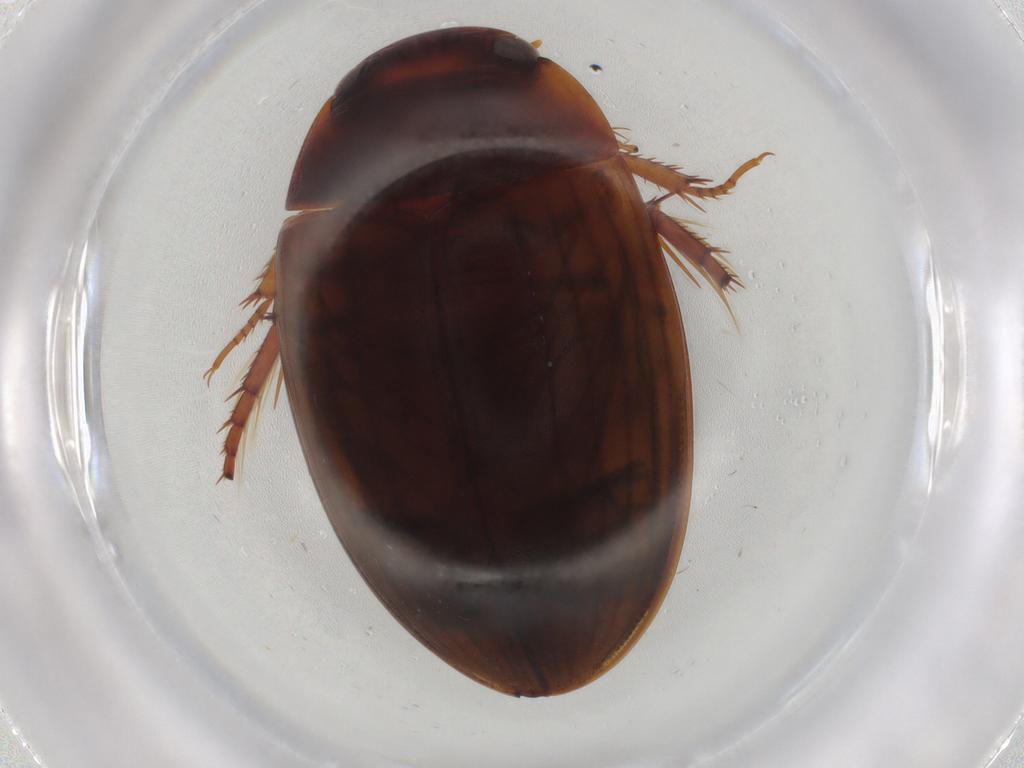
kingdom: Animalia
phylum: Arthropoda
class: Insecta
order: Coleoptera
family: Dytiscidae
